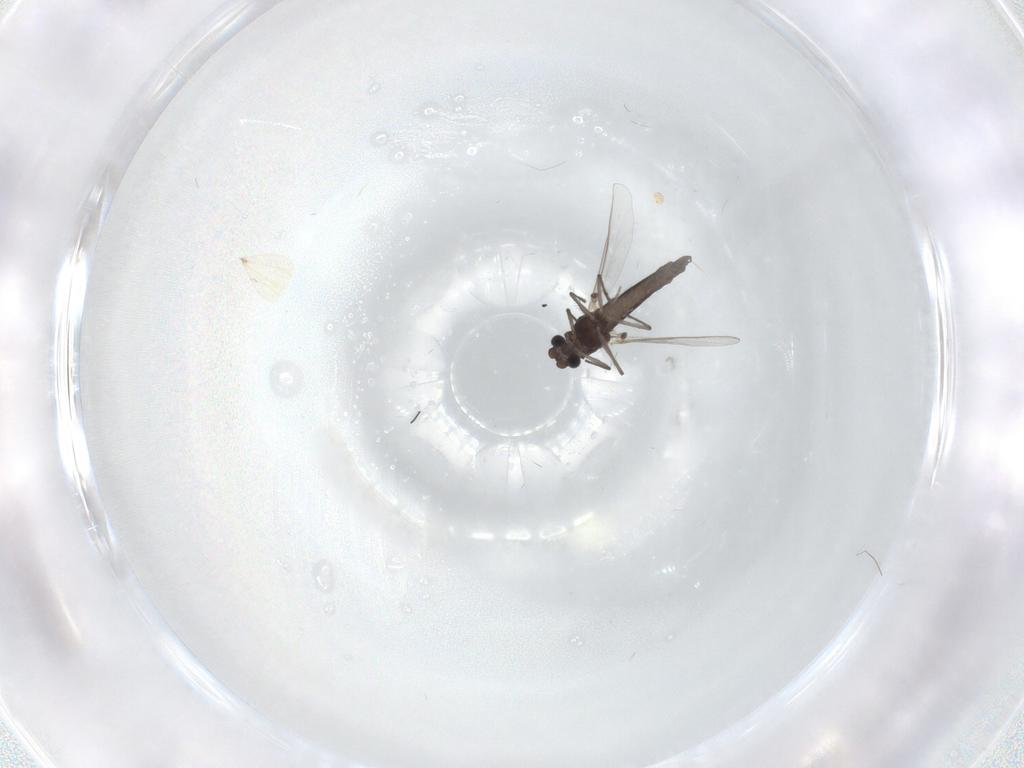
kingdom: Animalia
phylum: Arthropoda
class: Insecta
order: Diptera
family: Chironomidae
